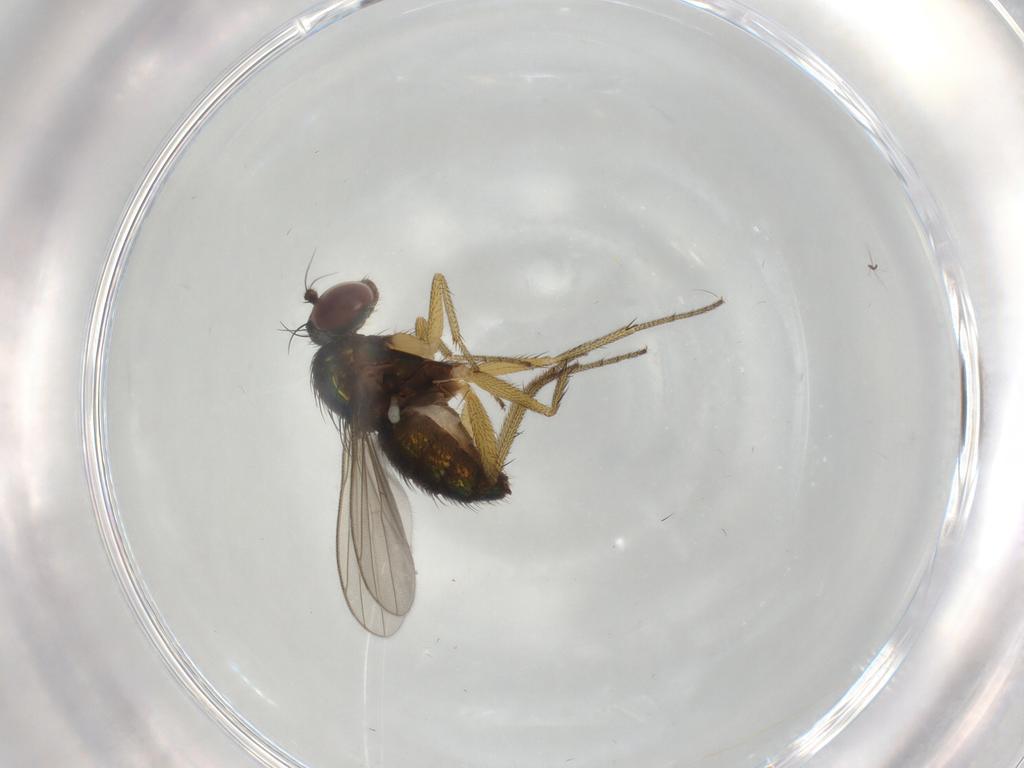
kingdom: Animalia
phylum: Arthropoda
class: Insecta
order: Diptera
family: Dolichopodidae
